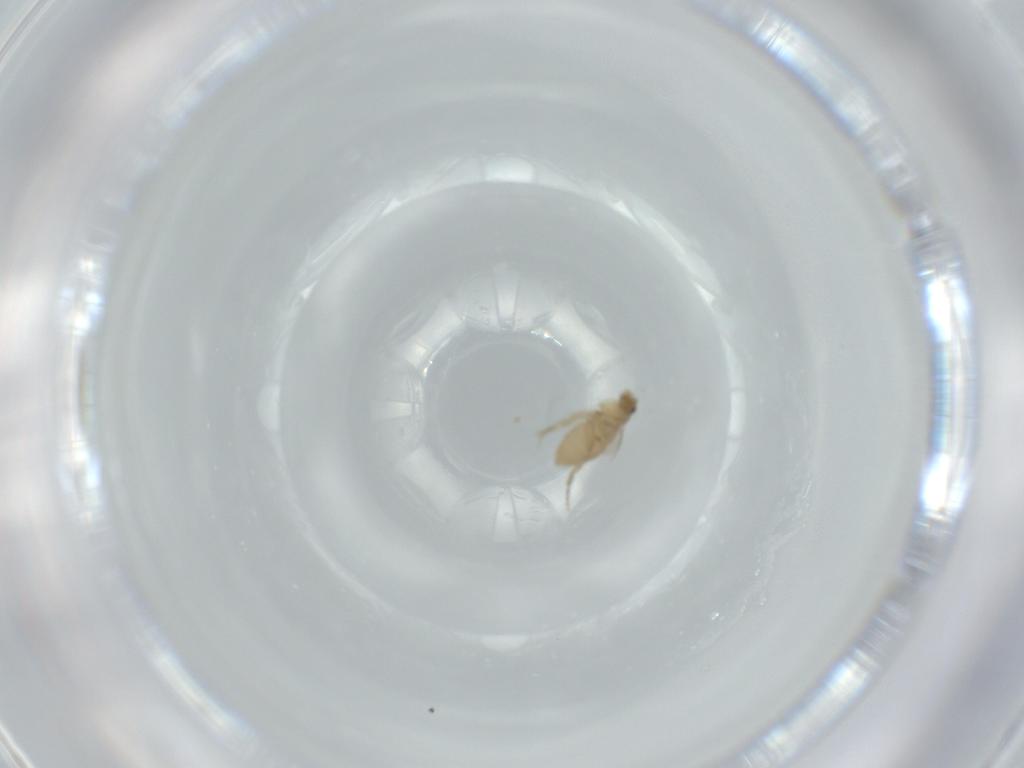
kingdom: Animalia
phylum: Arthropoda
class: Insecta
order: Diptera
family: Phoridae
